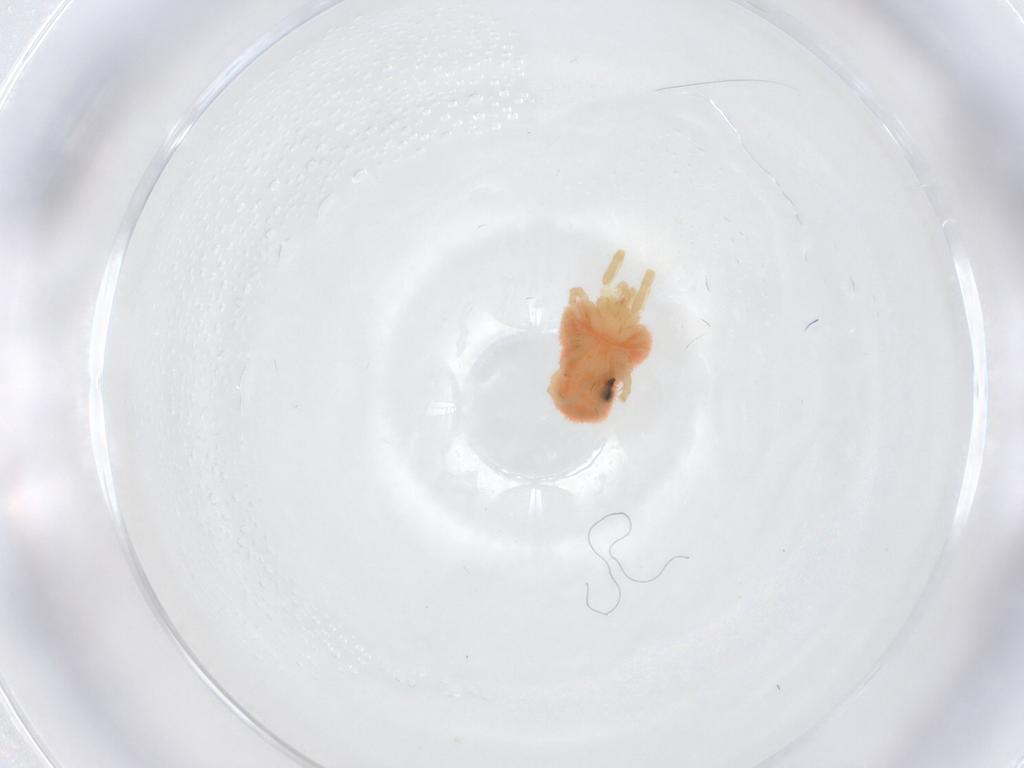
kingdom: Animalia
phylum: Arthropoda
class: Arachnida
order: Trombidiformes
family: Trombidiidae
